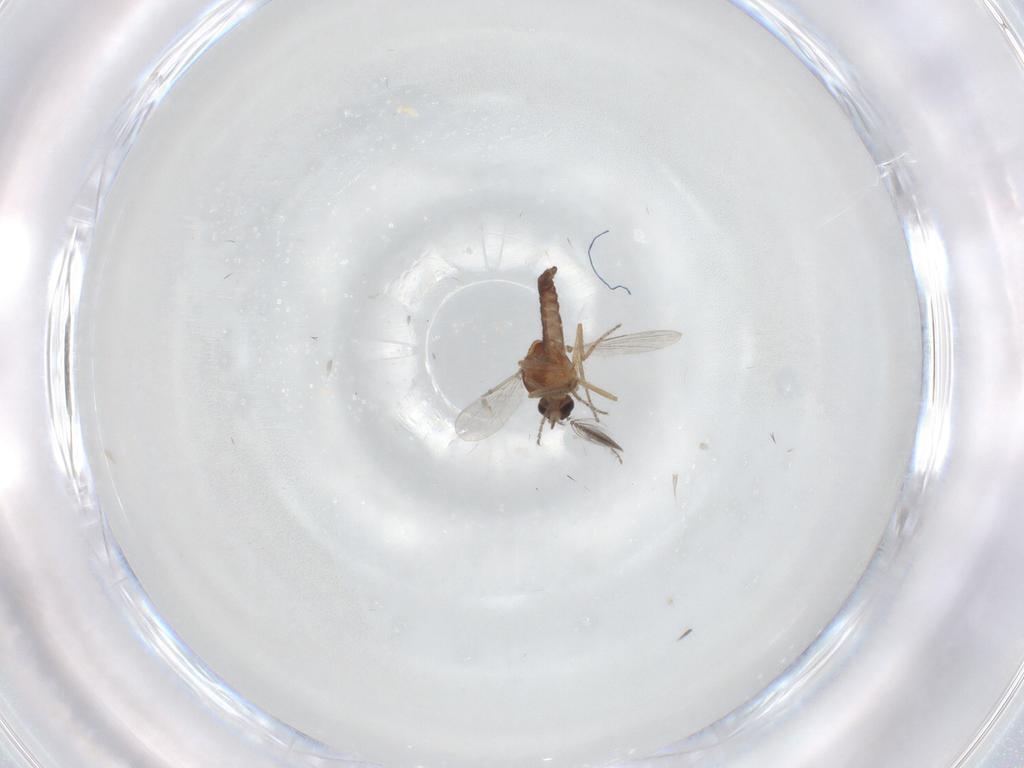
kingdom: Animalia
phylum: Arthropoda
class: Insecta
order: Diptera
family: Ceratopogonidae
